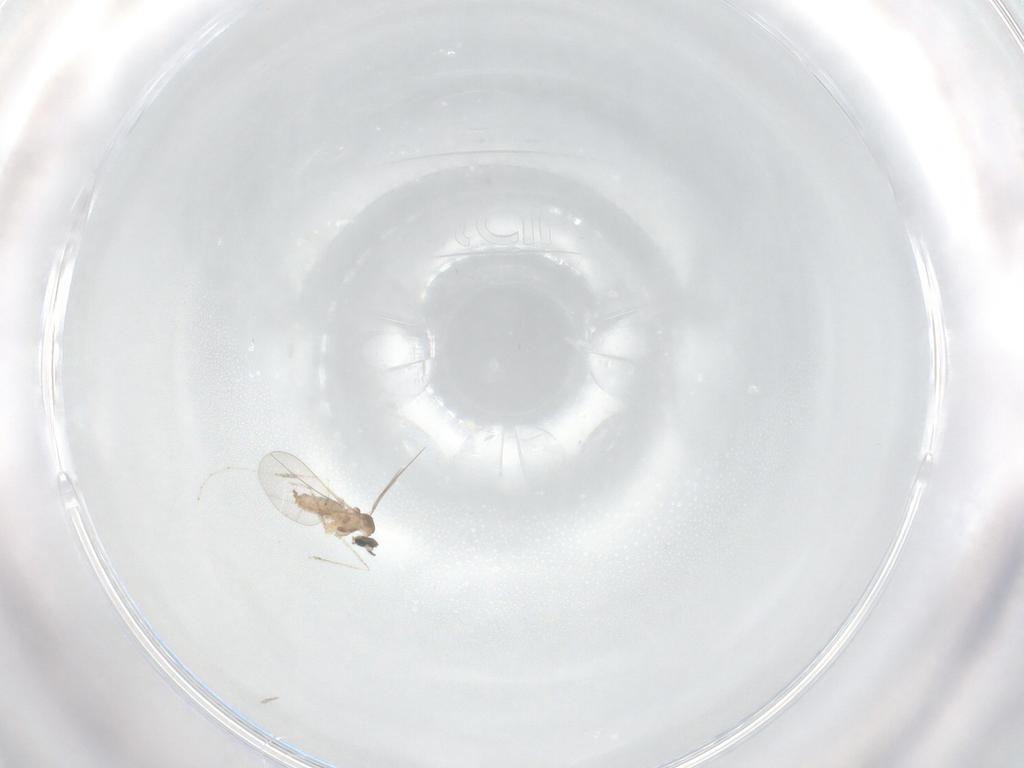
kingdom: Animalia
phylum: Arthropoda
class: Insecta
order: Diptera
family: Cecidomyiidae
